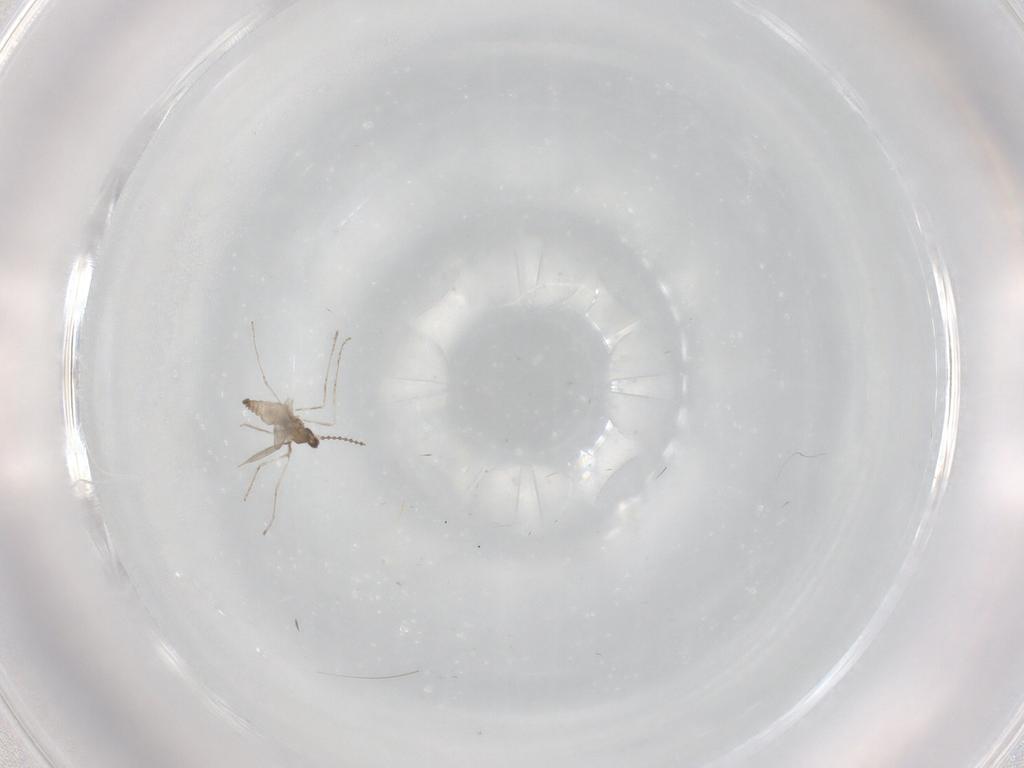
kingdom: Animalia
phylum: Arthropoda
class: Insecta
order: Diptera
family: Cecidomyiidae
